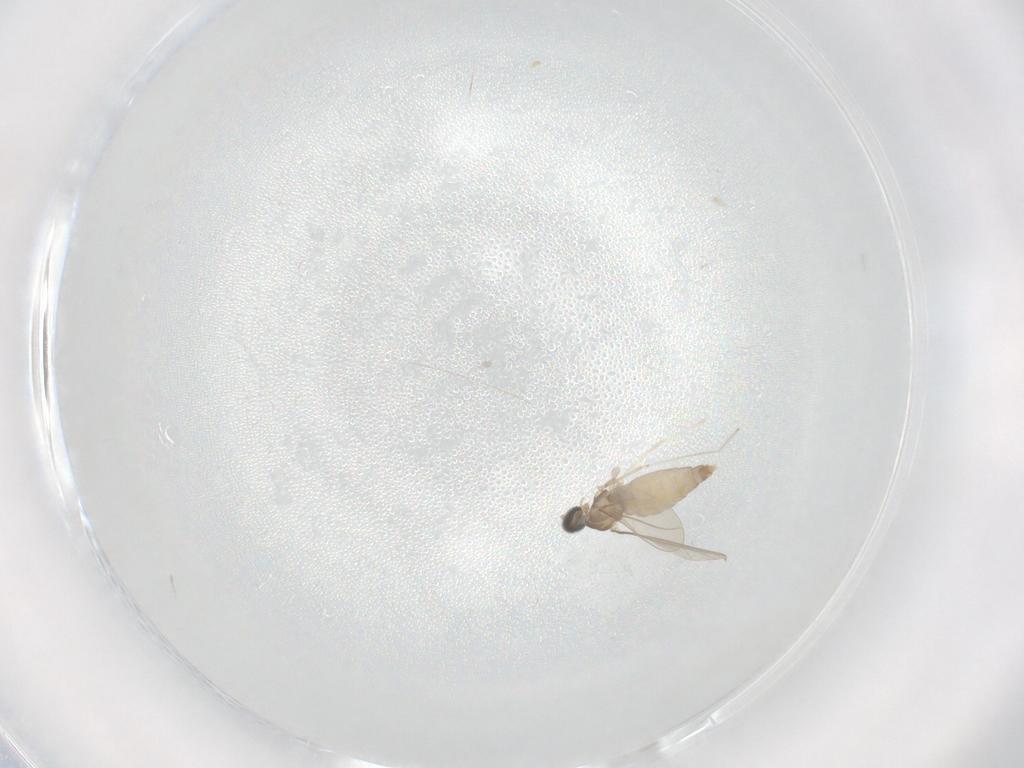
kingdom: Animalia
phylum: Arthropoda
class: Insecta
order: Diptera
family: Cecidomyiidae
